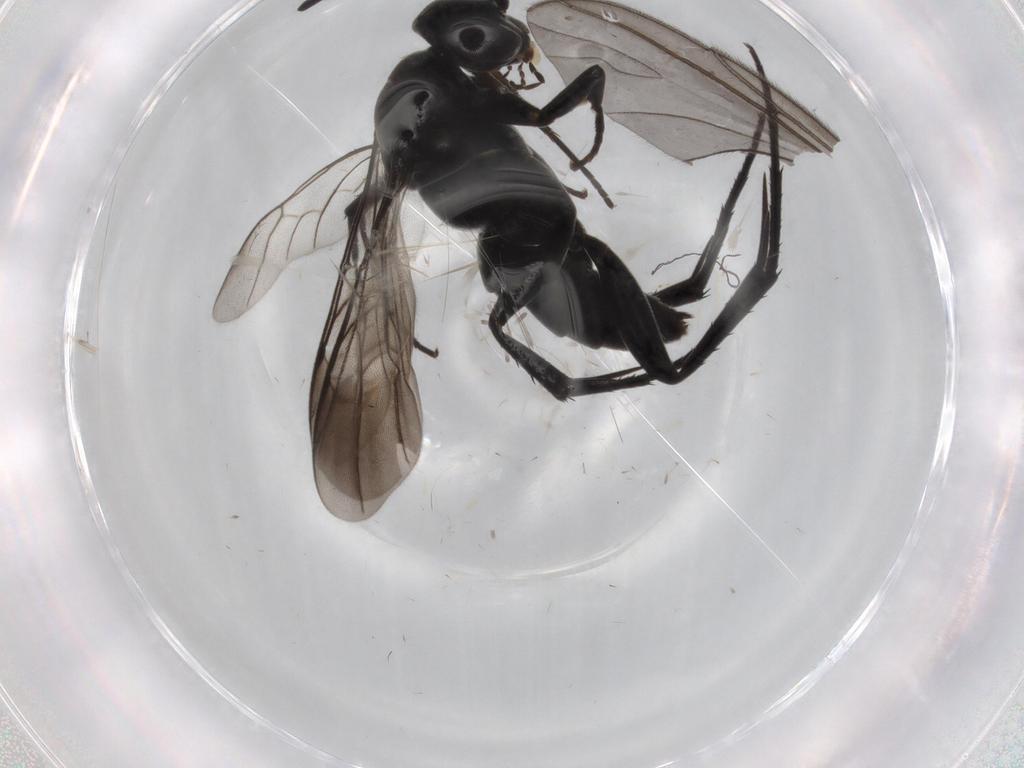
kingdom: Animalia
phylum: Arthropoda
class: Insecta
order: Hymenoptera
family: Pompilidae
